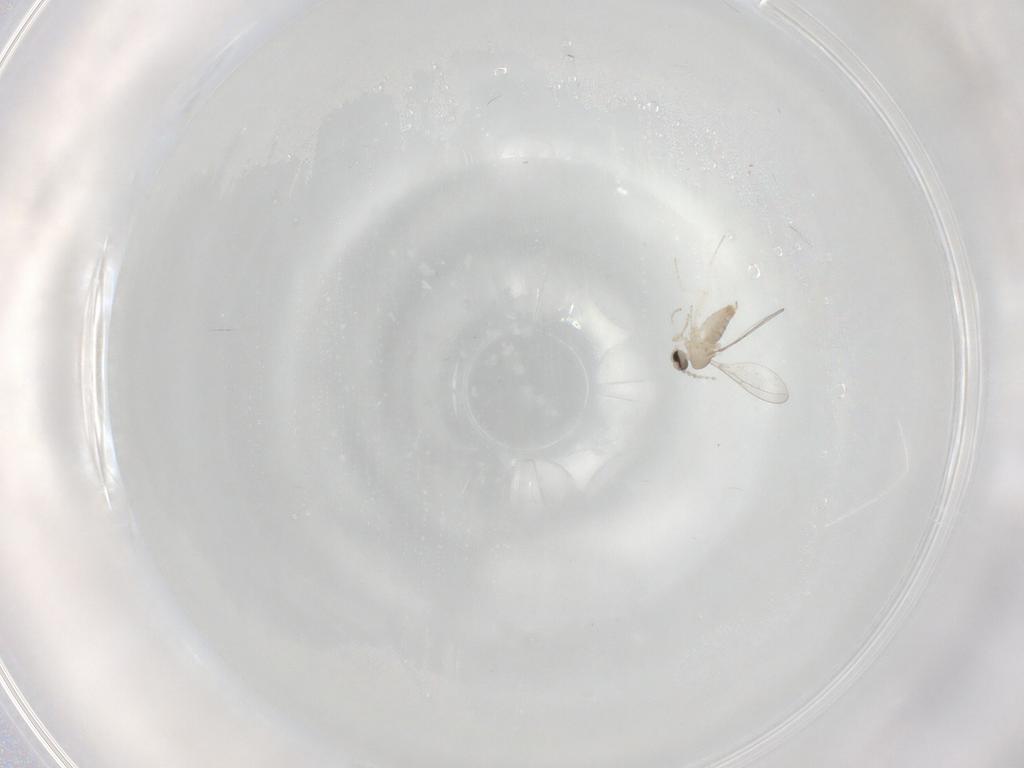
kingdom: Animalia
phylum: Arthropoda
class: Insecta
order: Diptera
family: Cecidomyiidae
